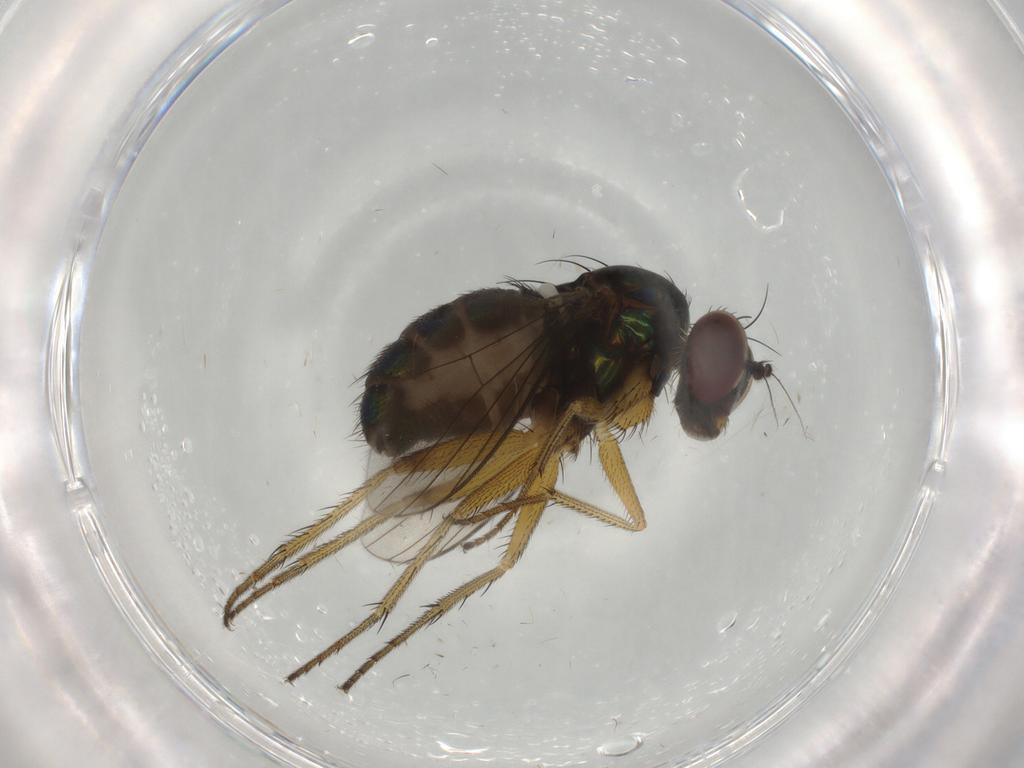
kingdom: Animalia
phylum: Arthropoda
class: Insecta
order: Diptera
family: Dolichopodidae
